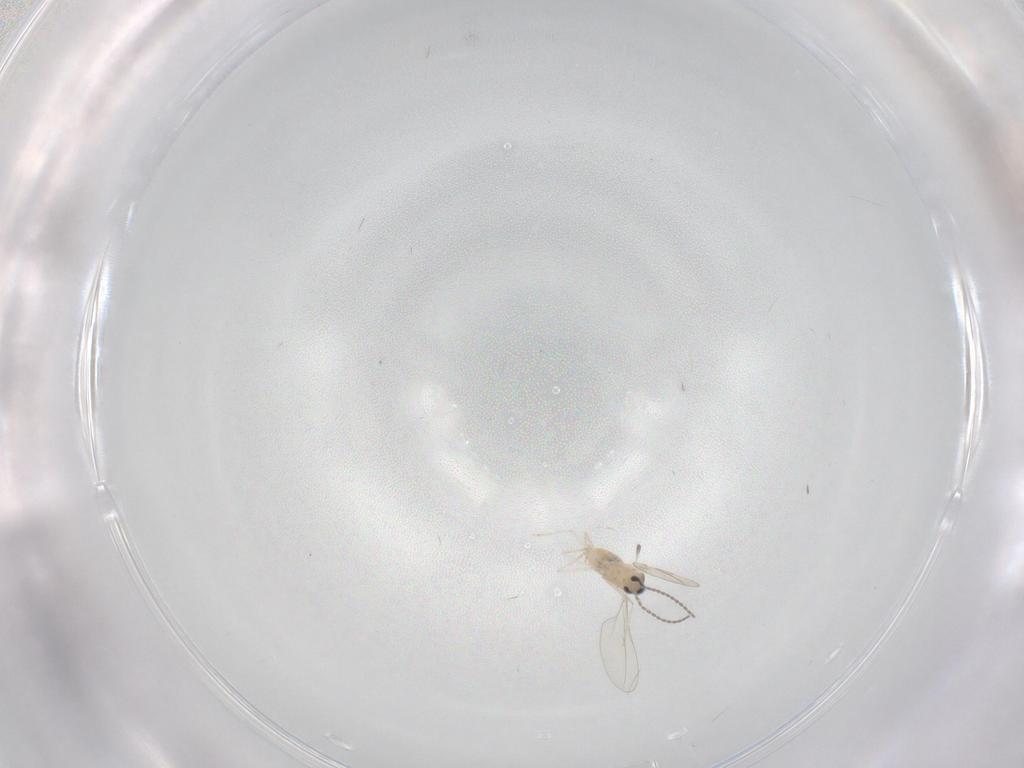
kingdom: Animalia
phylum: Arthropoda
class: Insecta
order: Diptera
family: Cecidomyiidae
